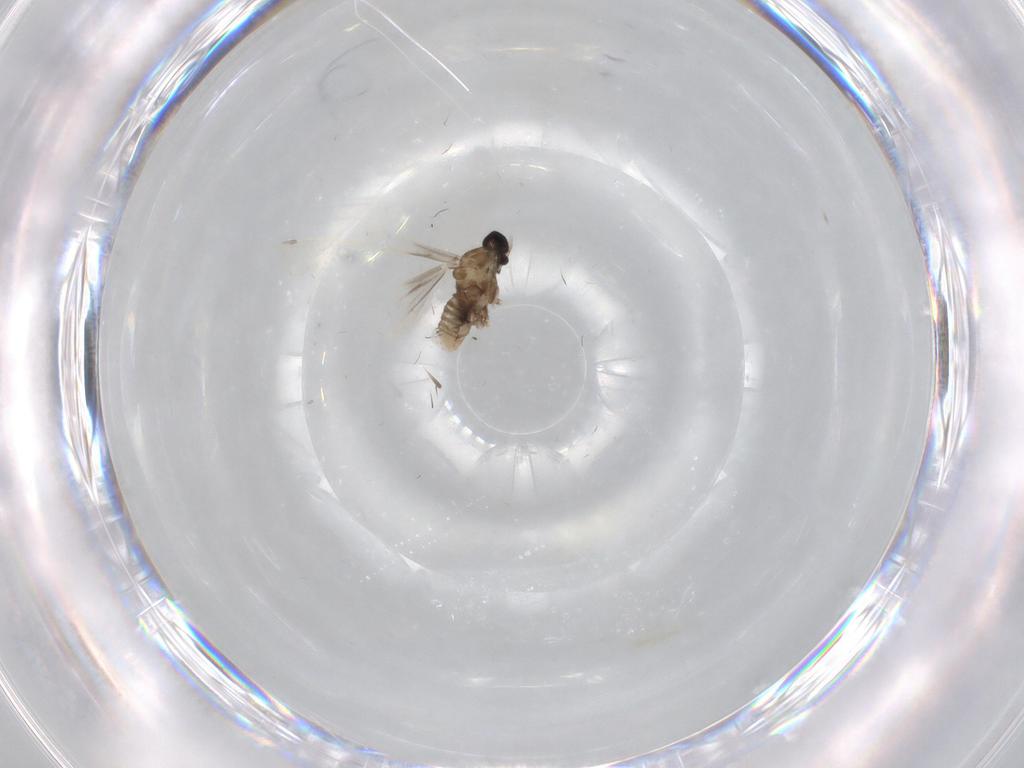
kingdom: Animalia
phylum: Arthropoda
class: Insecta
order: Diptera
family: Cecidomyiidae
